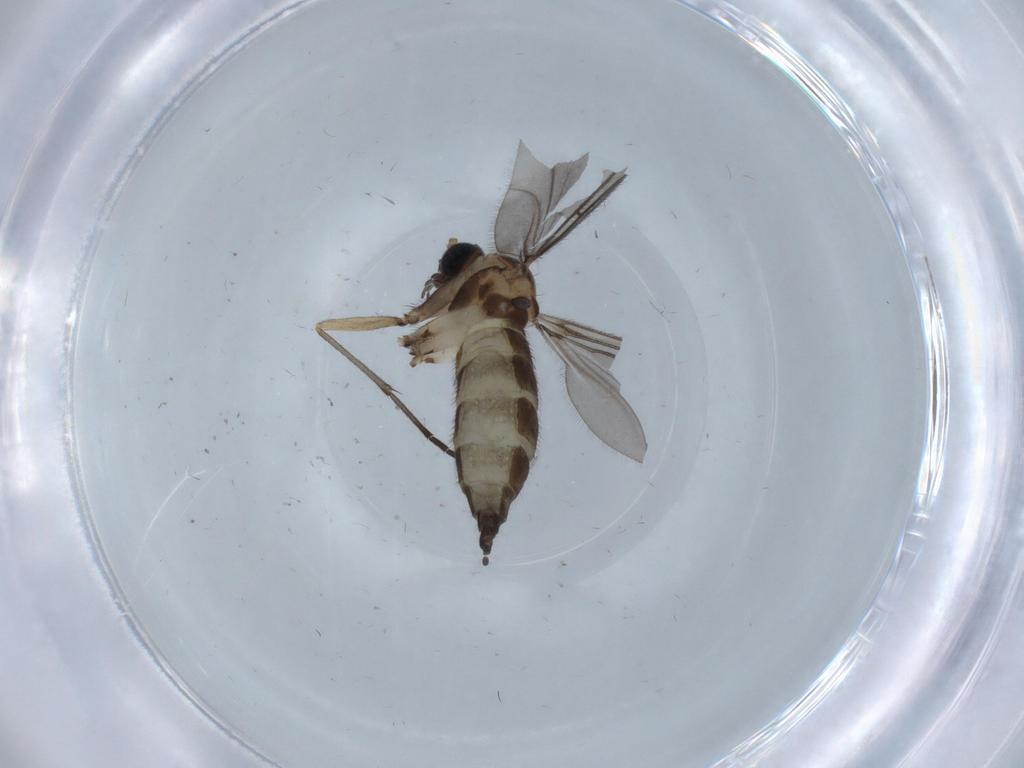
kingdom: Animalia
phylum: Arthropoda
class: Insecta
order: Diptera
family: Sciaridae
